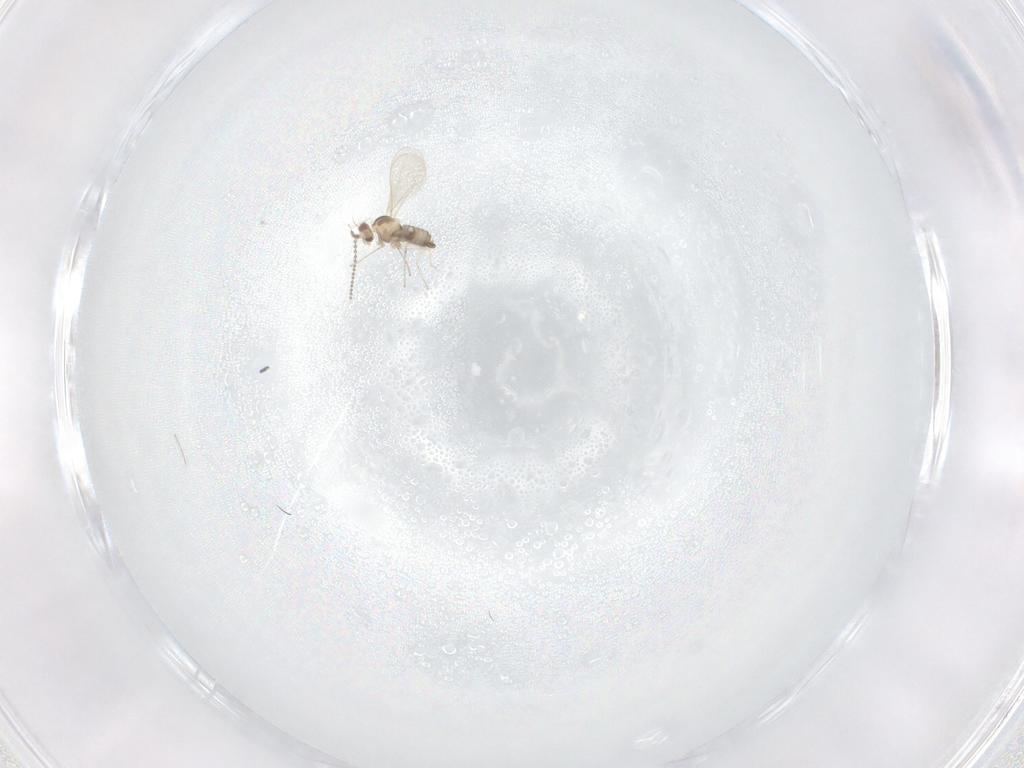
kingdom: Animalia
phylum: Arthropoda
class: Insecta
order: Diptera
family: Cecidomyiidae
